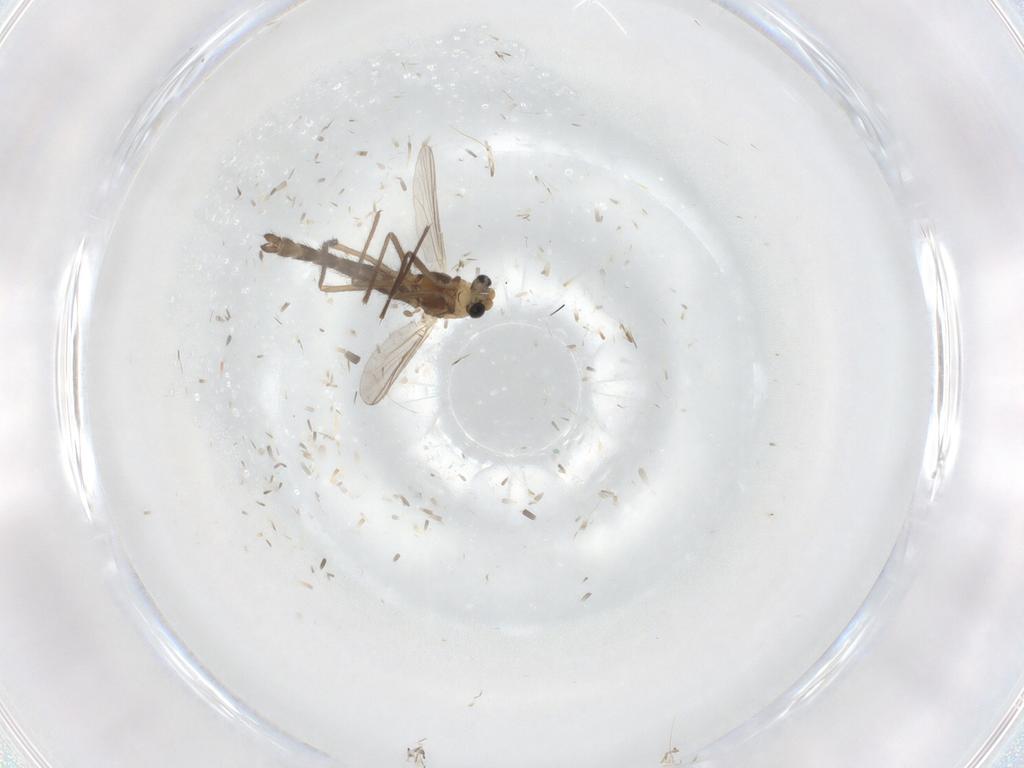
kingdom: Animalia
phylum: Arthropoda
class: Insecta
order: Diptera
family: Chironomidae
